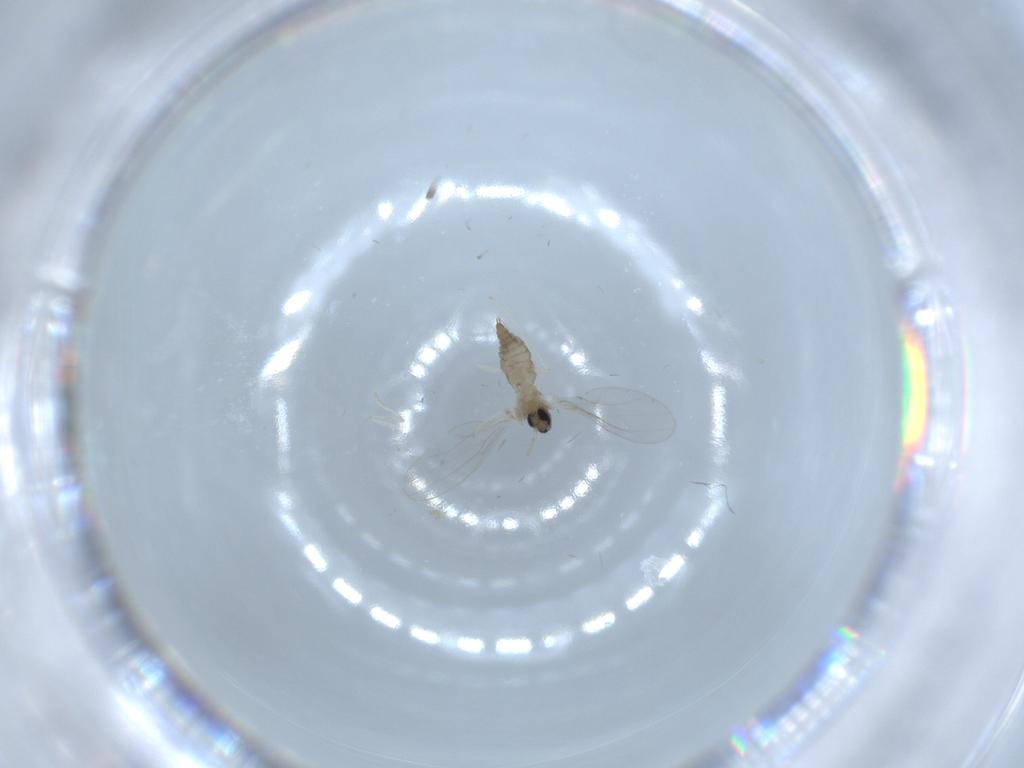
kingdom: Animalia
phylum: Arthropoda
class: Insecta
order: Diptera
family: Cecidomyiidae
